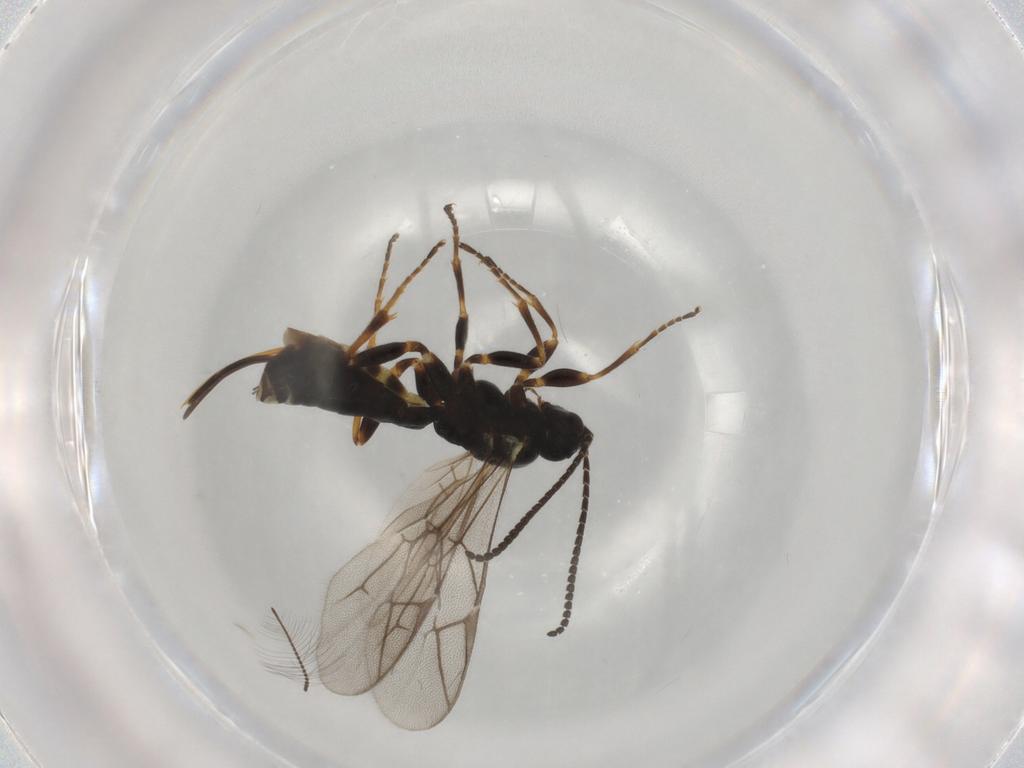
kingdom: Animalia
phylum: Arthropoda
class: Insecta
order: Hymenoptera
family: Ichneumonidae
